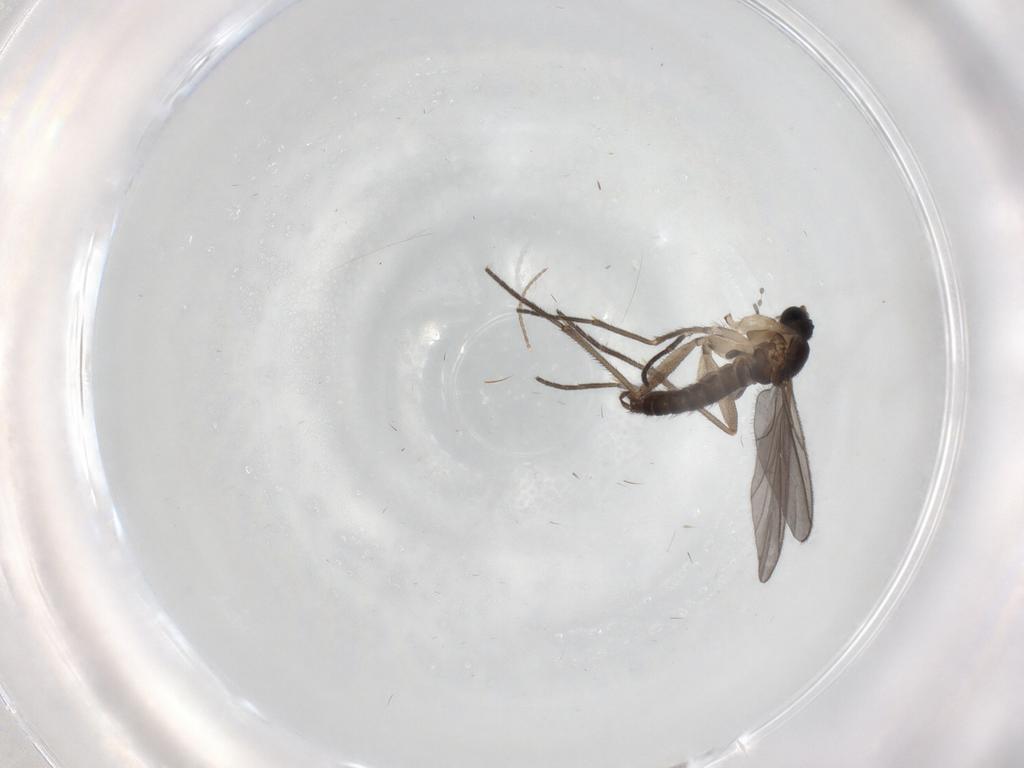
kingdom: Animalia
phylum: Arthropoda
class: Insecta
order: Diptera
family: Sciaridae
